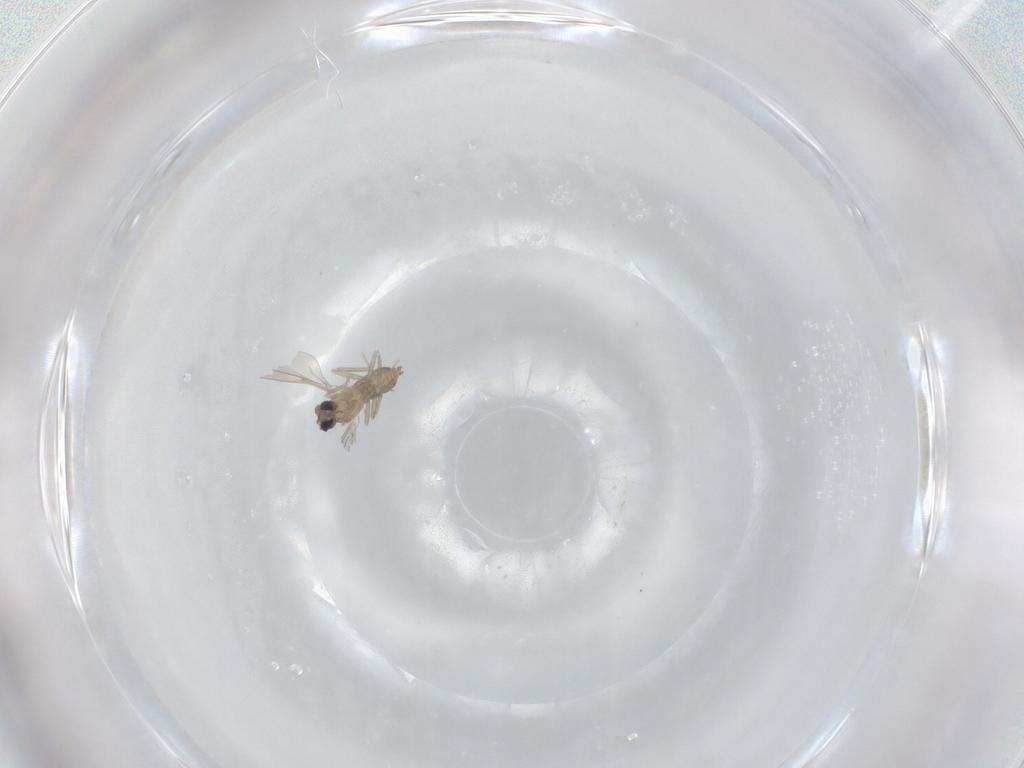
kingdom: Animalia
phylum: Arthropoda
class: Insecta
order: Diptera
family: Cecidomyiidae
